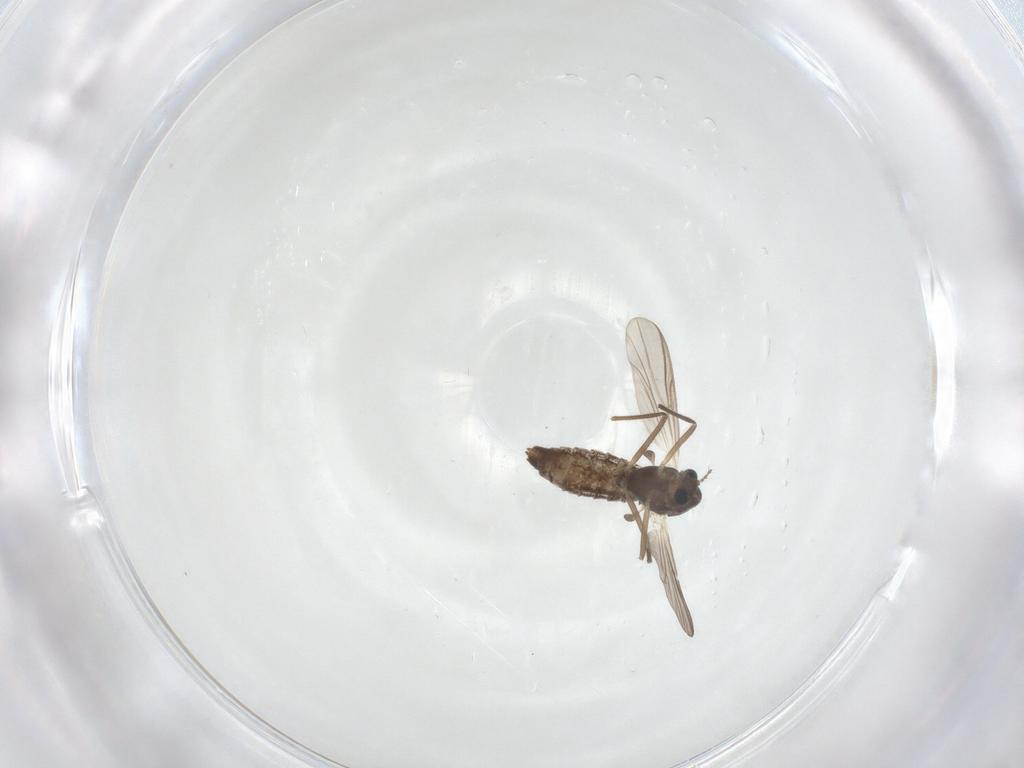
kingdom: Animalia
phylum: Arthropoda
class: Insecta
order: Diptera
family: Chironomidae
